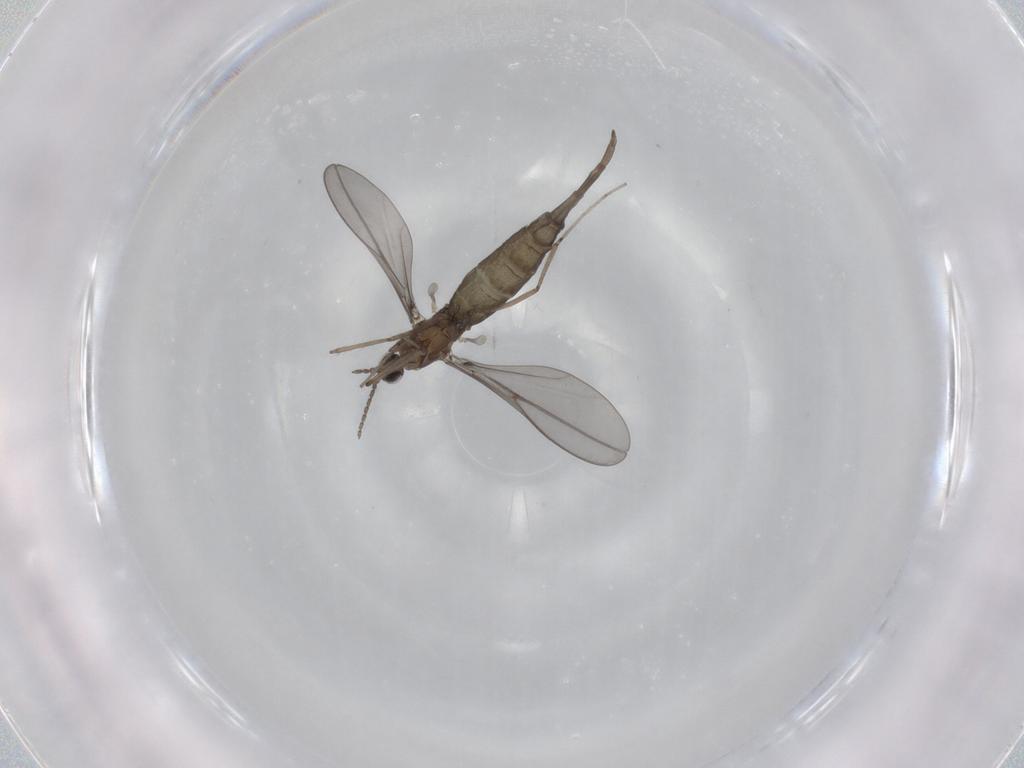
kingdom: Animalia
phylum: Arthropoda
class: Insecta
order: Diptera
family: Cecidomyiidae
